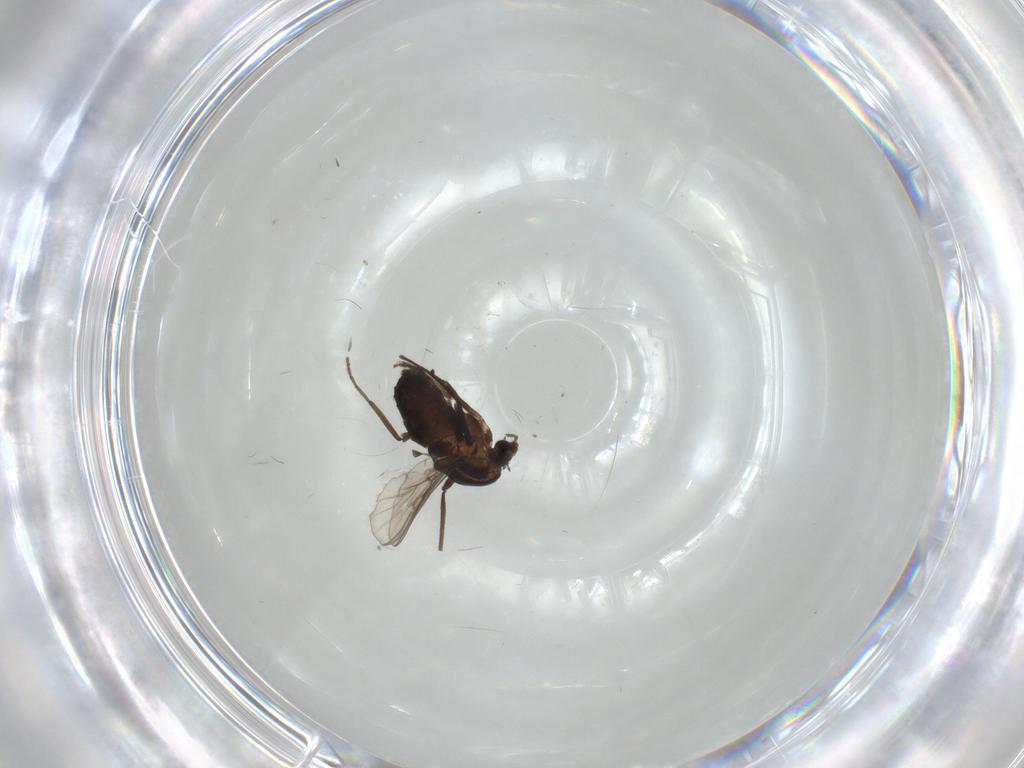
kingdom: Animalia
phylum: Arthropoda
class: Insecta
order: Diptera
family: Chironomidae
